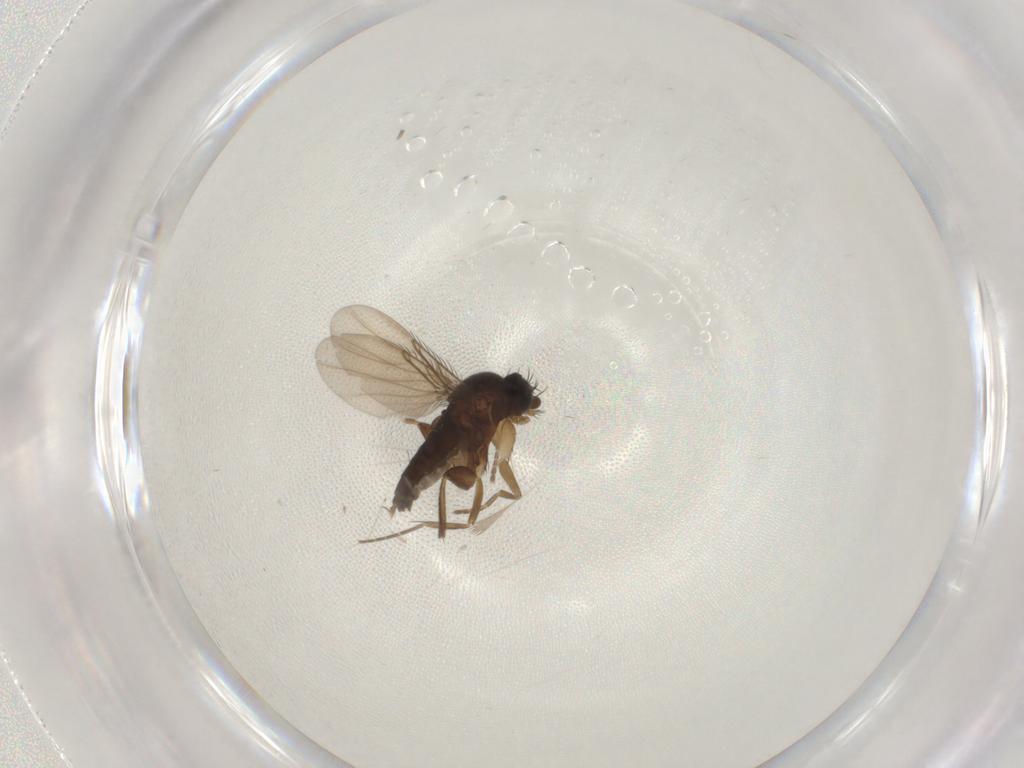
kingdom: Animalia
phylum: Arthropoda
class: Insecta
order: Diptera
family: Phoridae
